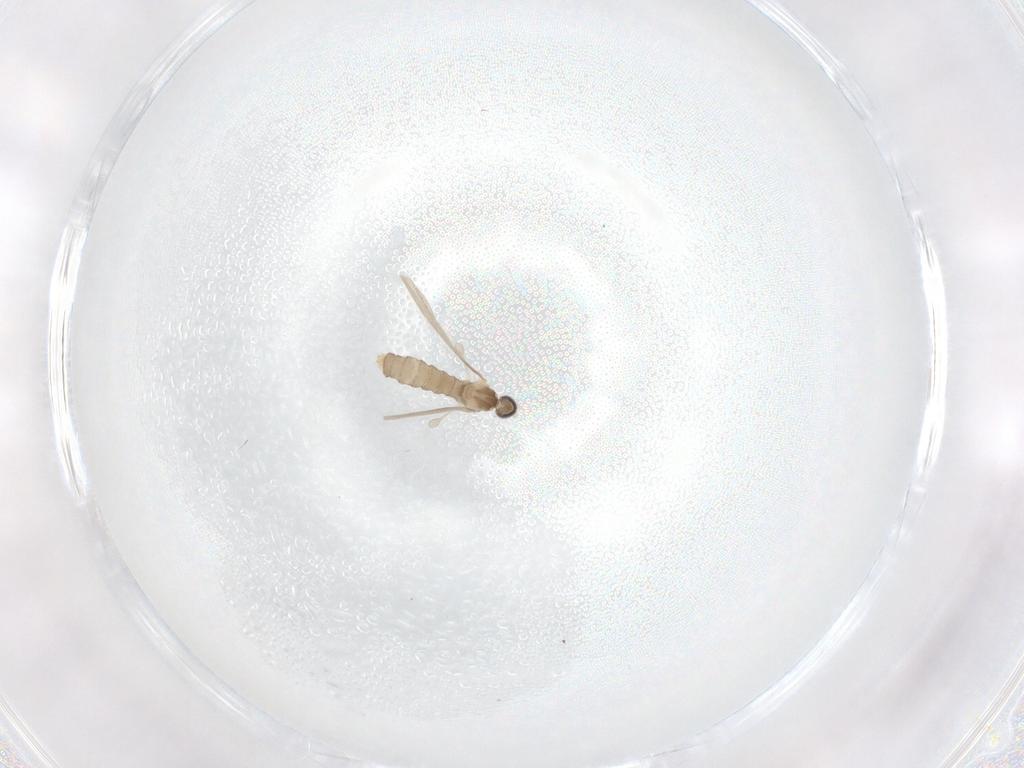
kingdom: Animalia
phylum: Arthropoda
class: Insecta
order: Diptera
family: Cecidomyiidae
